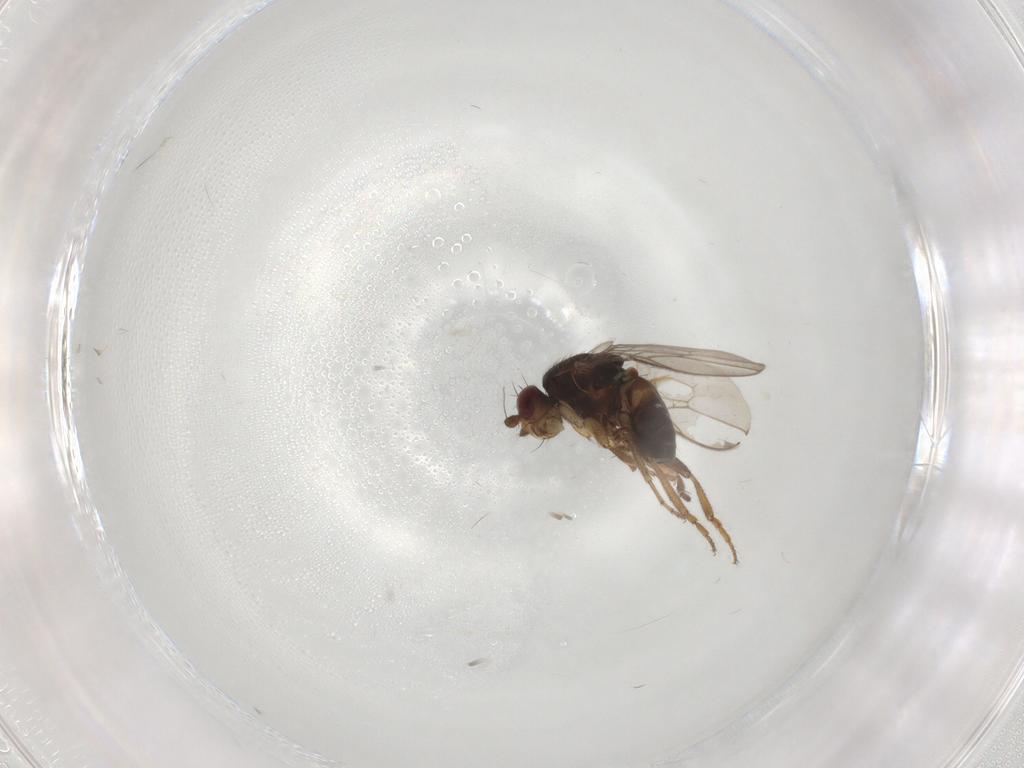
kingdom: Animalia
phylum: Arthropoda
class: Insecta
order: Diptera
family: Sphaeroceridae
